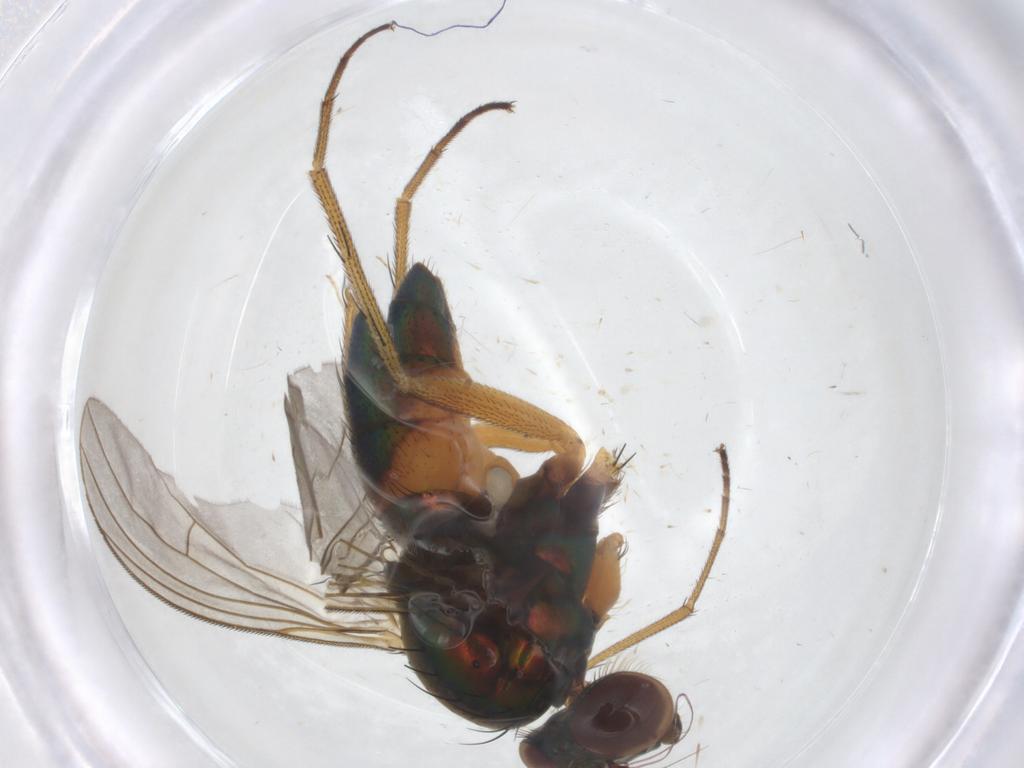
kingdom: Animalia
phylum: Arthropoda
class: Insecta
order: Diptera
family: Cecidomyiidae
